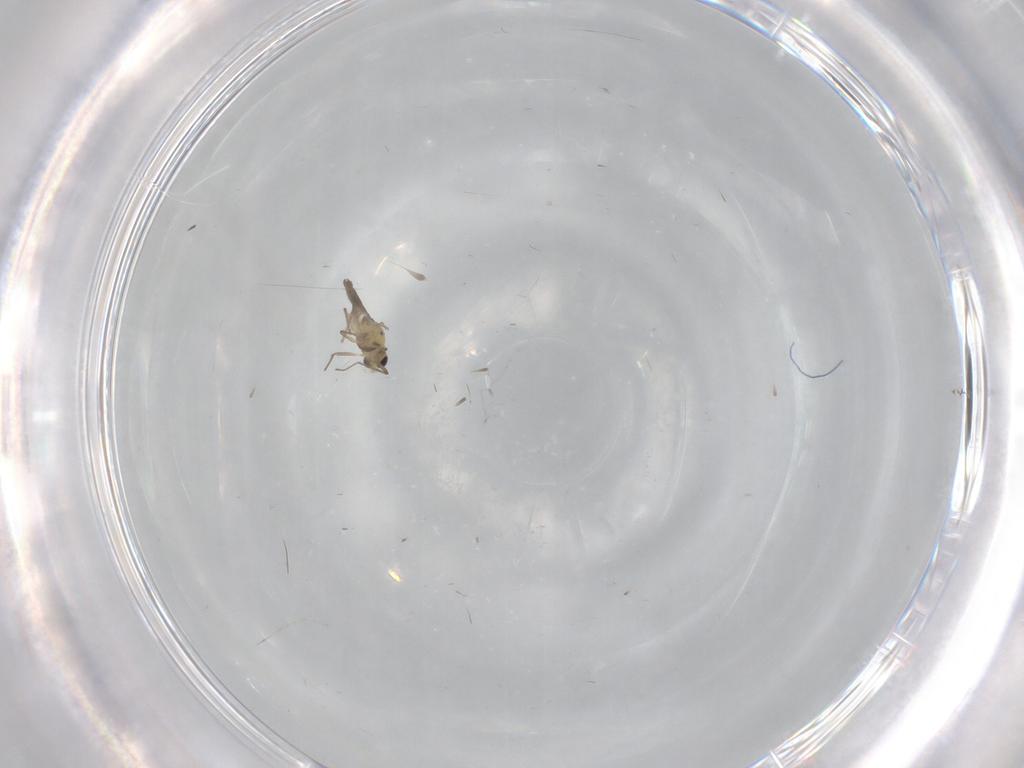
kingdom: Animalia
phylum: Arthropoda
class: Insecta
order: Diptera
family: Chironomidae
